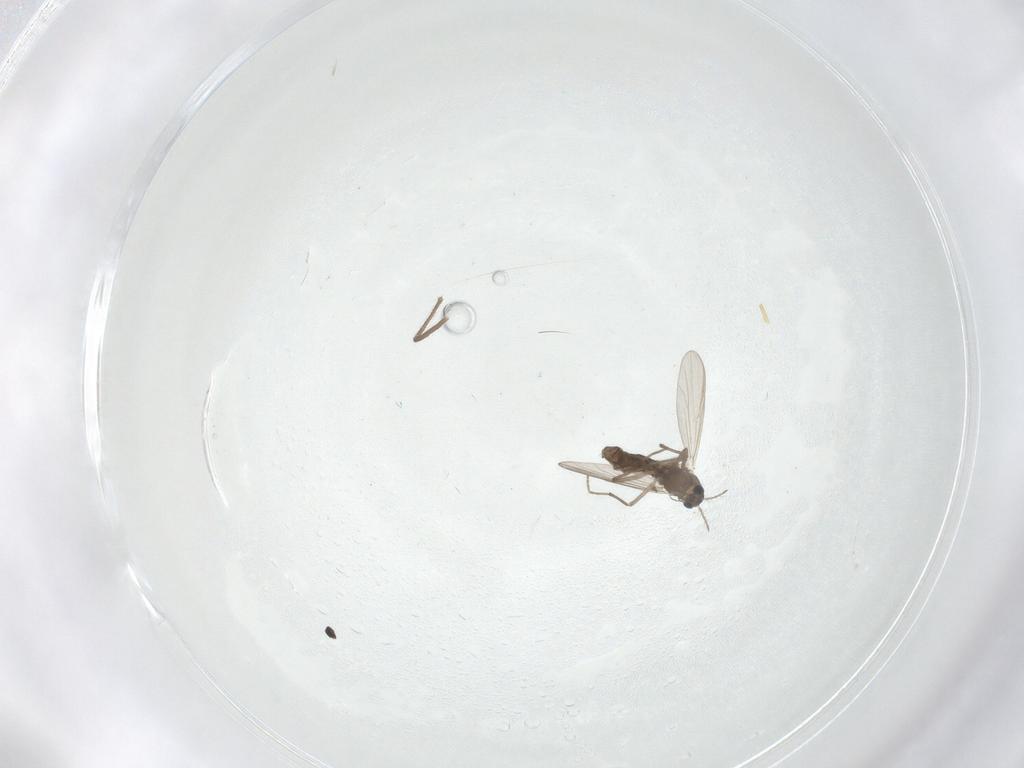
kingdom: Animalia
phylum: Arthropoda
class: Insecta
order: Diptera
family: Chironomidae
